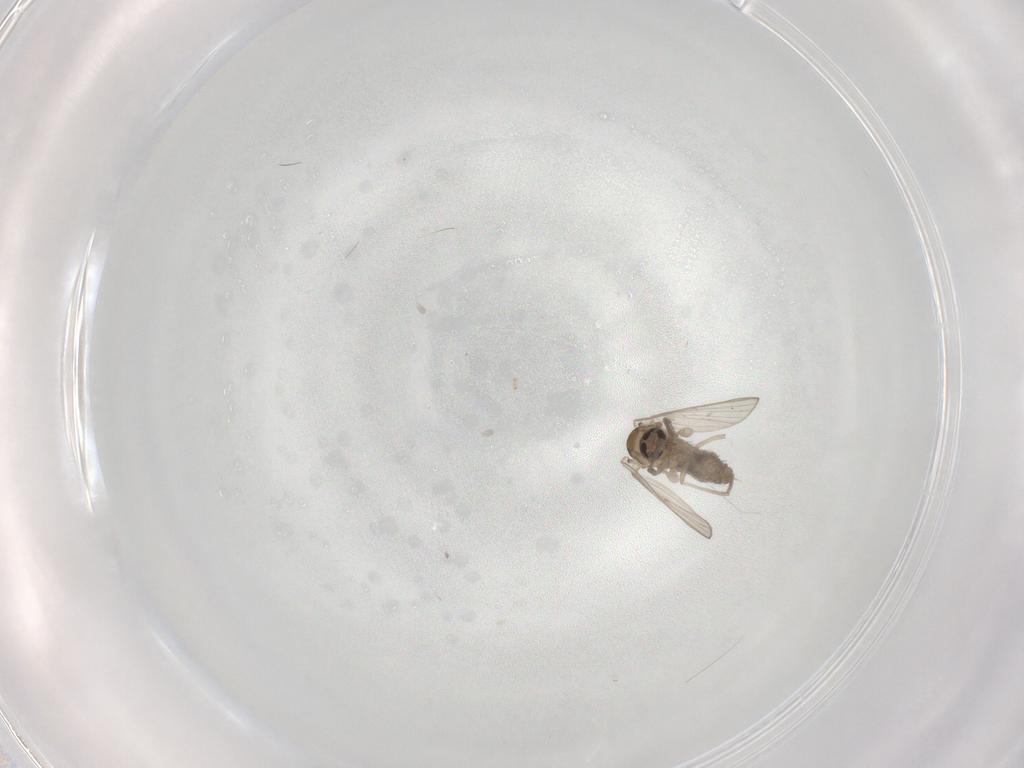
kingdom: Animalia
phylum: Arthropoda
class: Insecta
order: Diptera
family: Psychodidae
